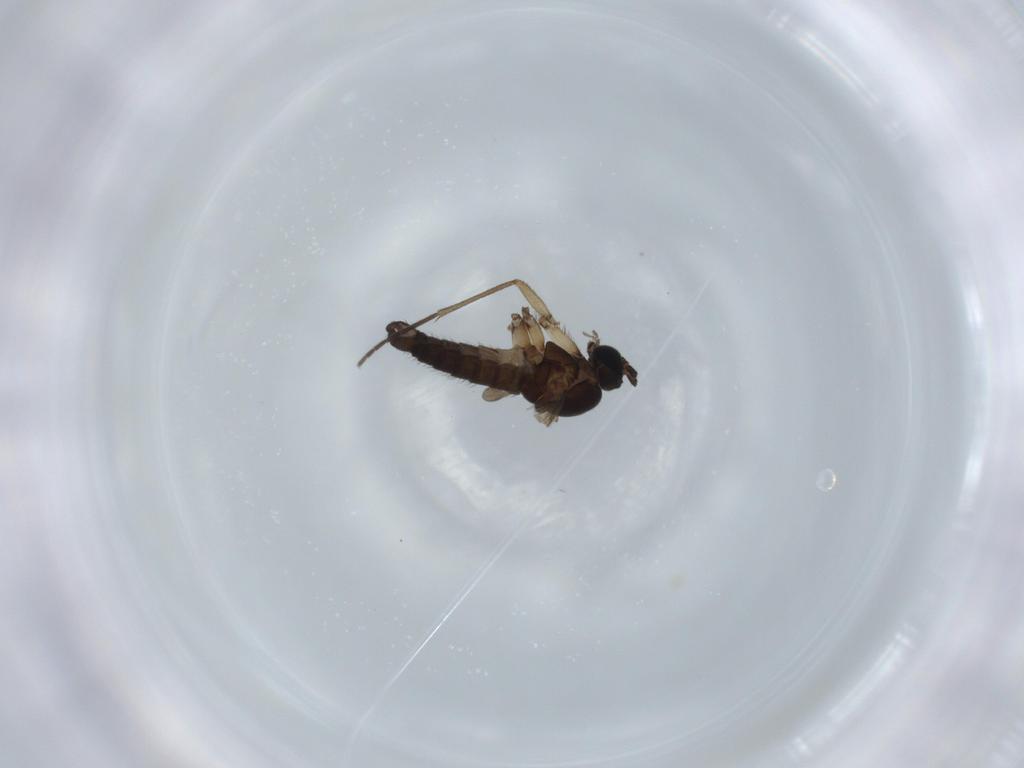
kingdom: Animalia
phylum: Arthropoda
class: Insecta
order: Diptera
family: Sciaridae
